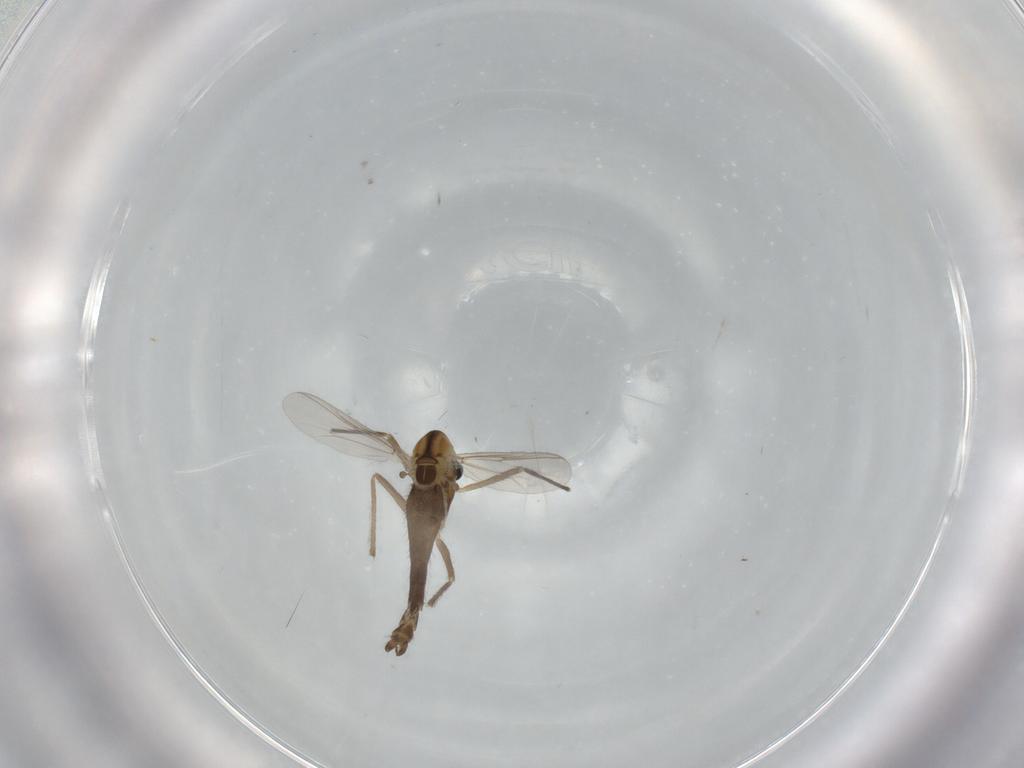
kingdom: Animalia
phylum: Arthropoda
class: Insecta
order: Diptera
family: Chironomidae
